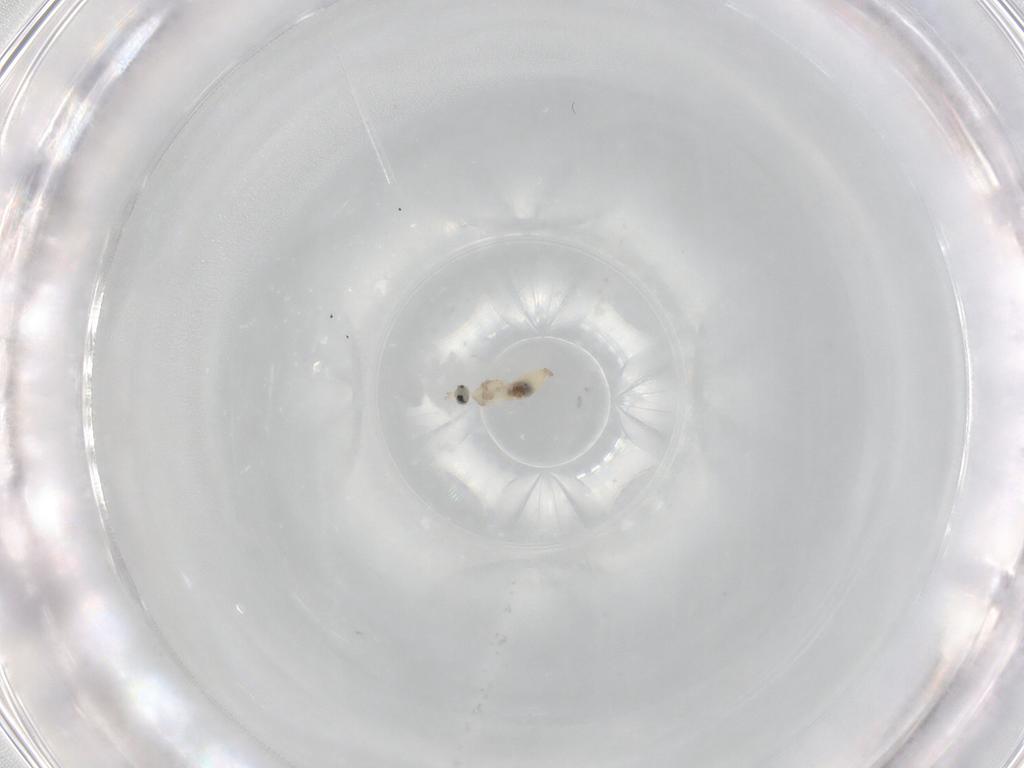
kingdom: Animalia
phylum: Arthropoda
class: Insecta
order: Diptera
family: Cecidomyiidae
